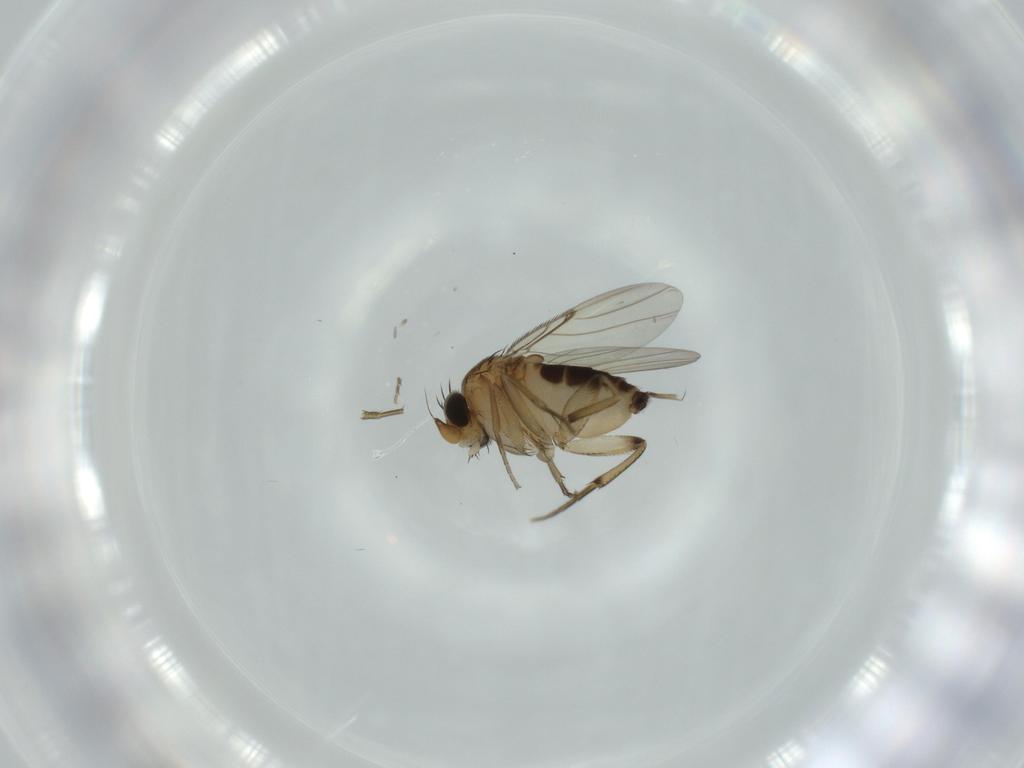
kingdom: Animalia
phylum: Arthropoda
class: Insecta
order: Diptera
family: Chironomidae
